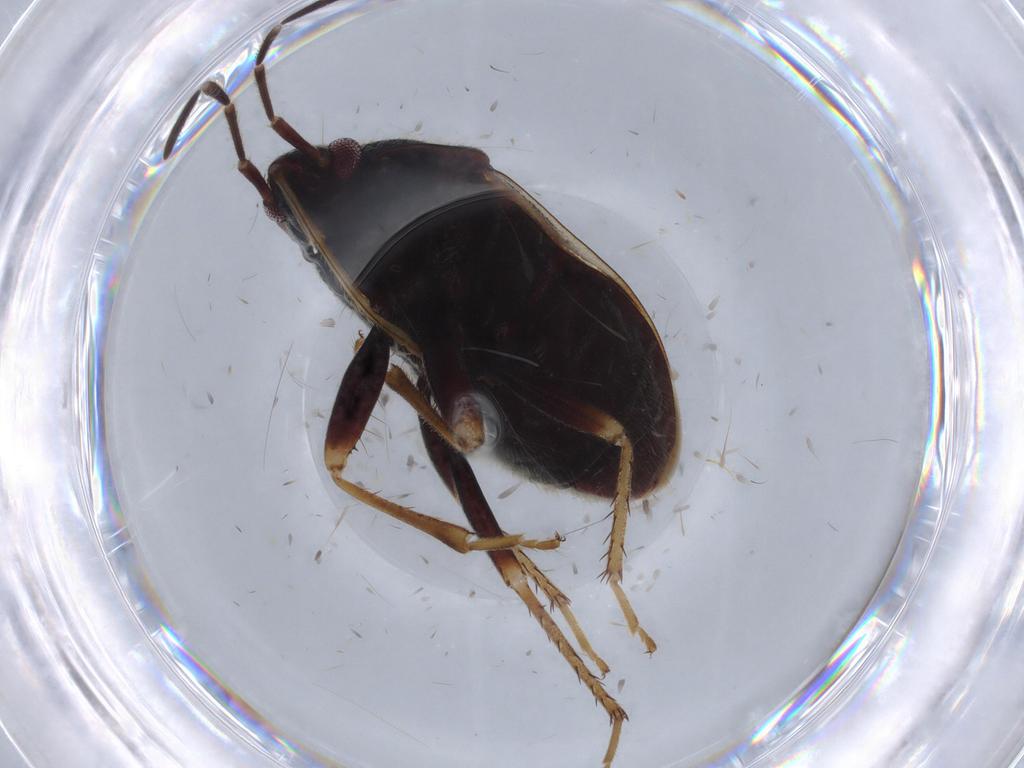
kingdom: Animalia
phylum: Arthropoda
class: Insecta
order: Hemiptera
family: Rhyparochromidae
